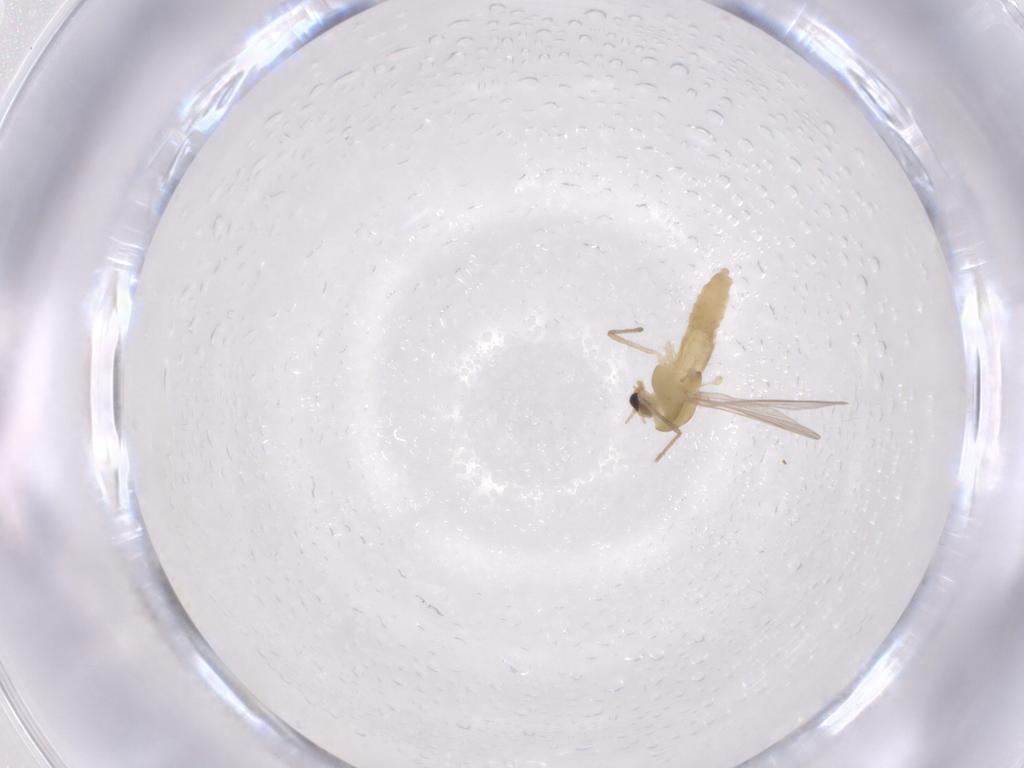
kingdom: Animalia
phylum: Arthropoda
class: Insecta
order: Diptera
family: Chironomidae
